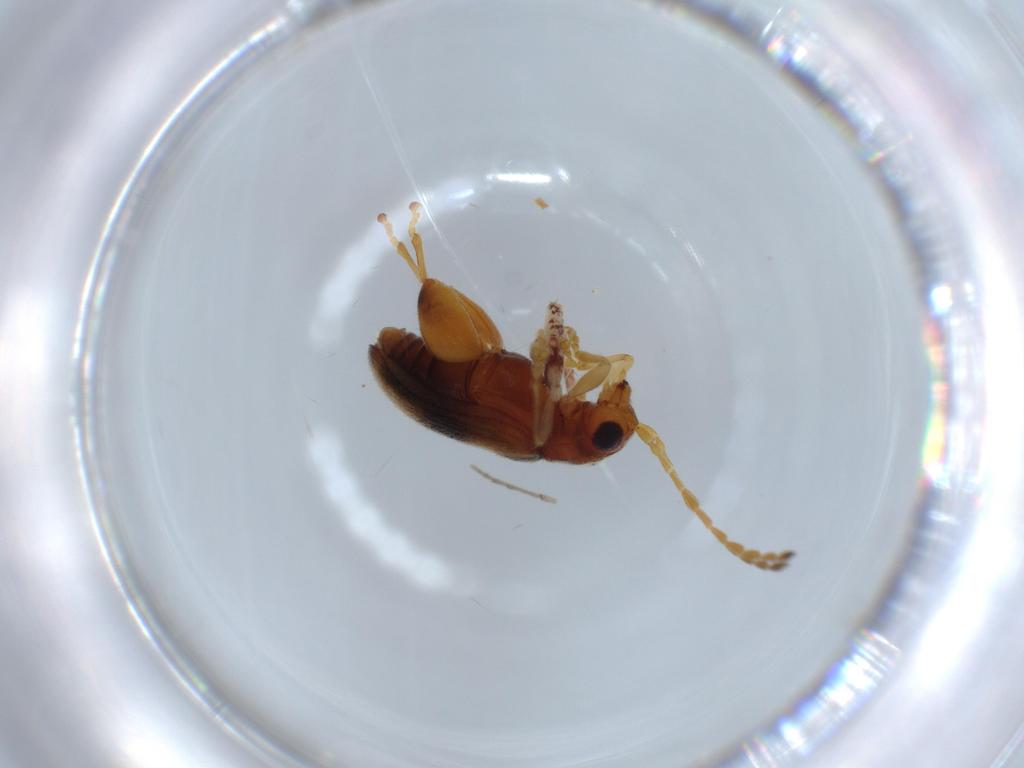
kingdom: Animalia
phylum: Arthropoda
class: Insecta
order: Coleoptera
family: Chrysomelidae
